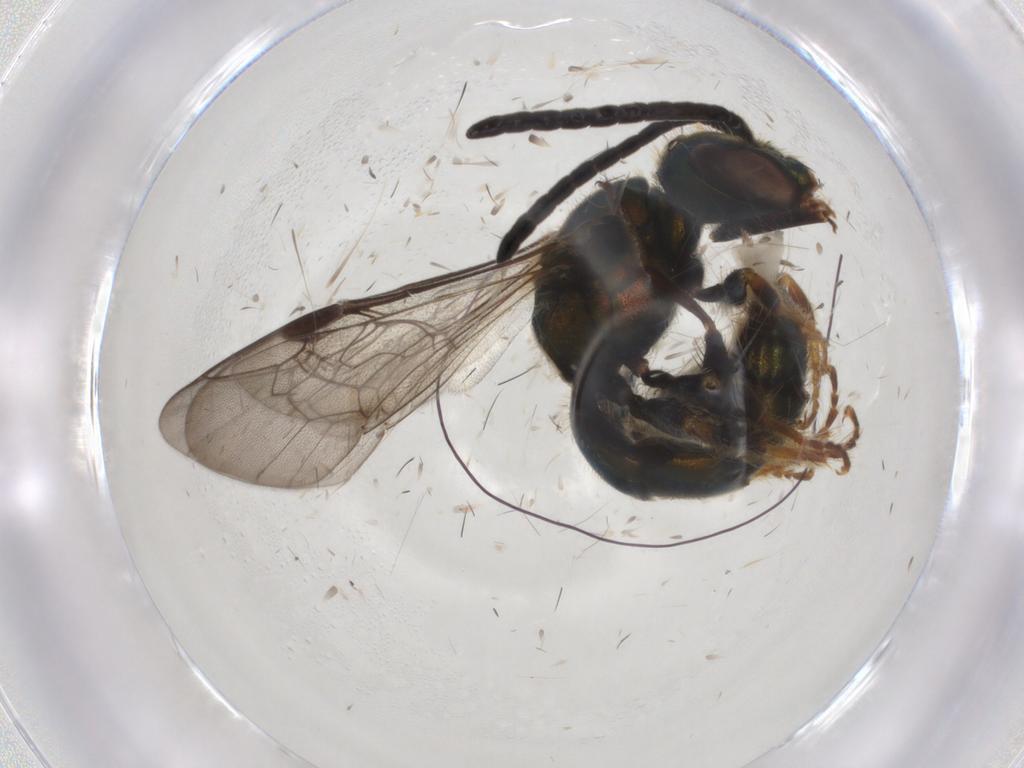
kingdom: Animalia
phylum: Arthropoda
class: Insecta
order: Hymenoptera
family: Halictidae
